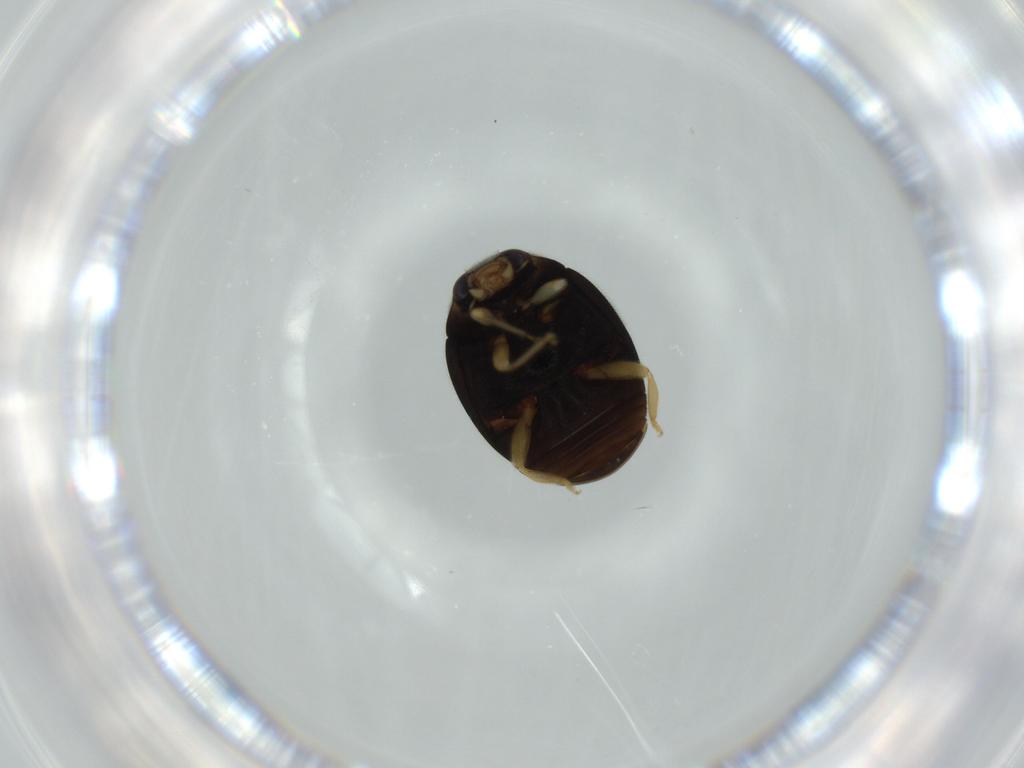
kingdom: Animalia
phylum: Arthropoda
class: Insecta
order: Coleoptera
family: Coccinellidae
